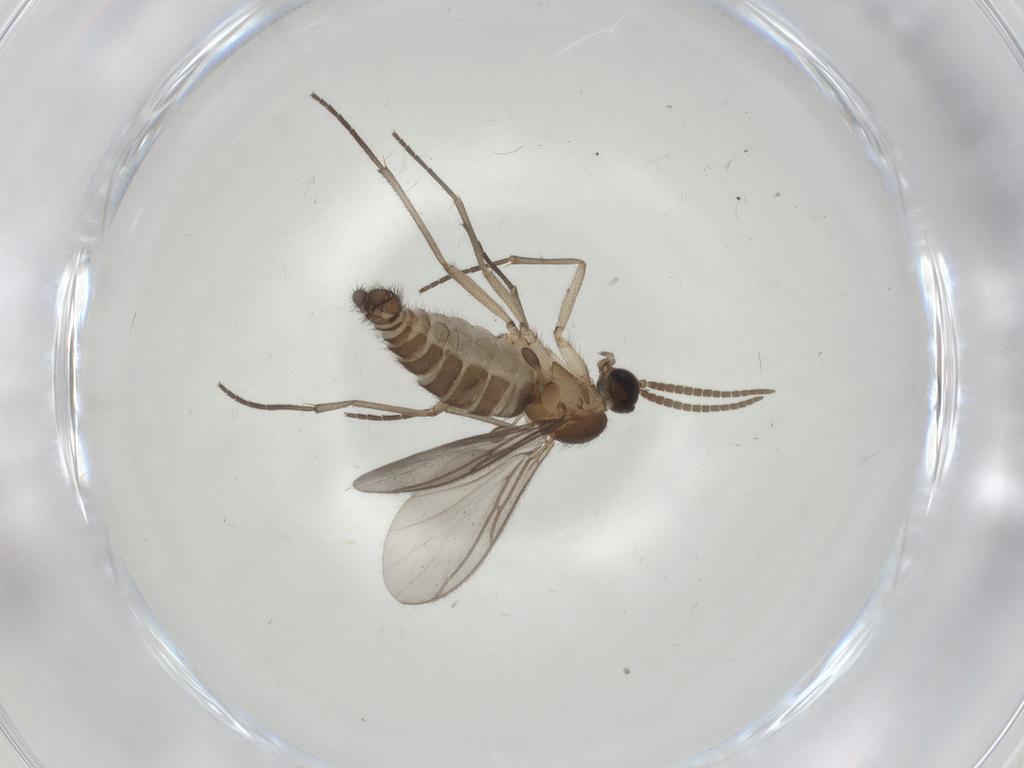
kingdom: Animalia
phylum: Arthropoda
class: Insecta
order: Diptera
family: Cecidomyiidae
